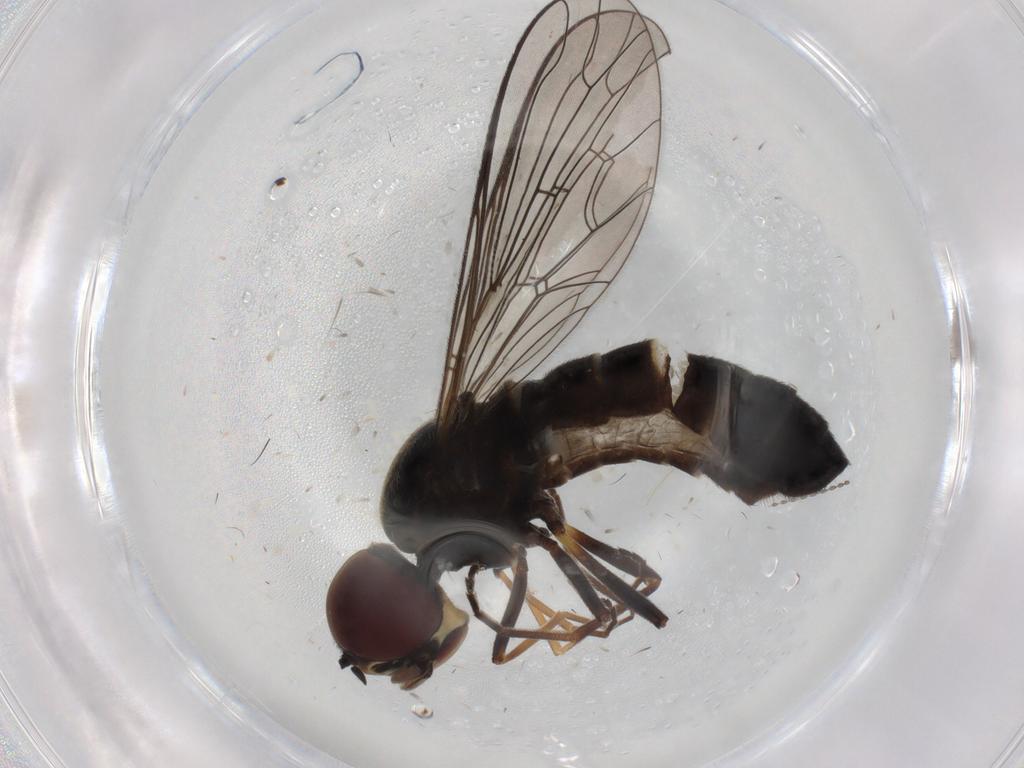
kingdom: Animalia
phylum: Arthropoda
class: Insecta
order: Diptera
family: Bombyliidae
